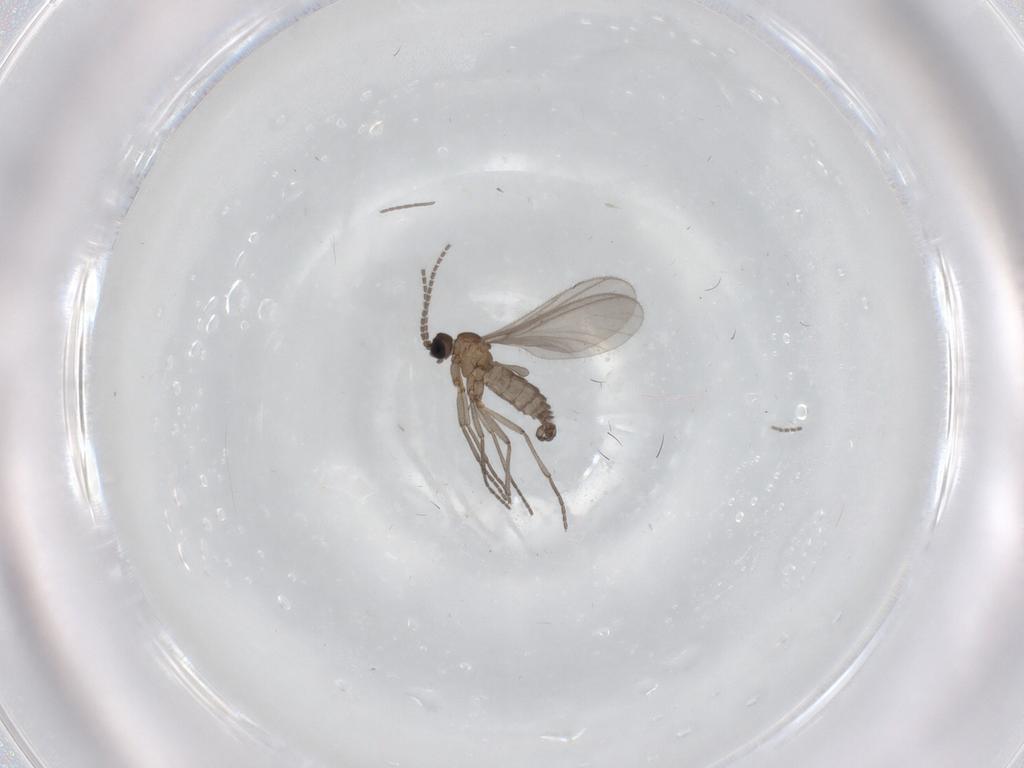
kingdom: Animalia
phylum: Arthropoda
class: Insecta
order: Diptera
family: Sciaridae
